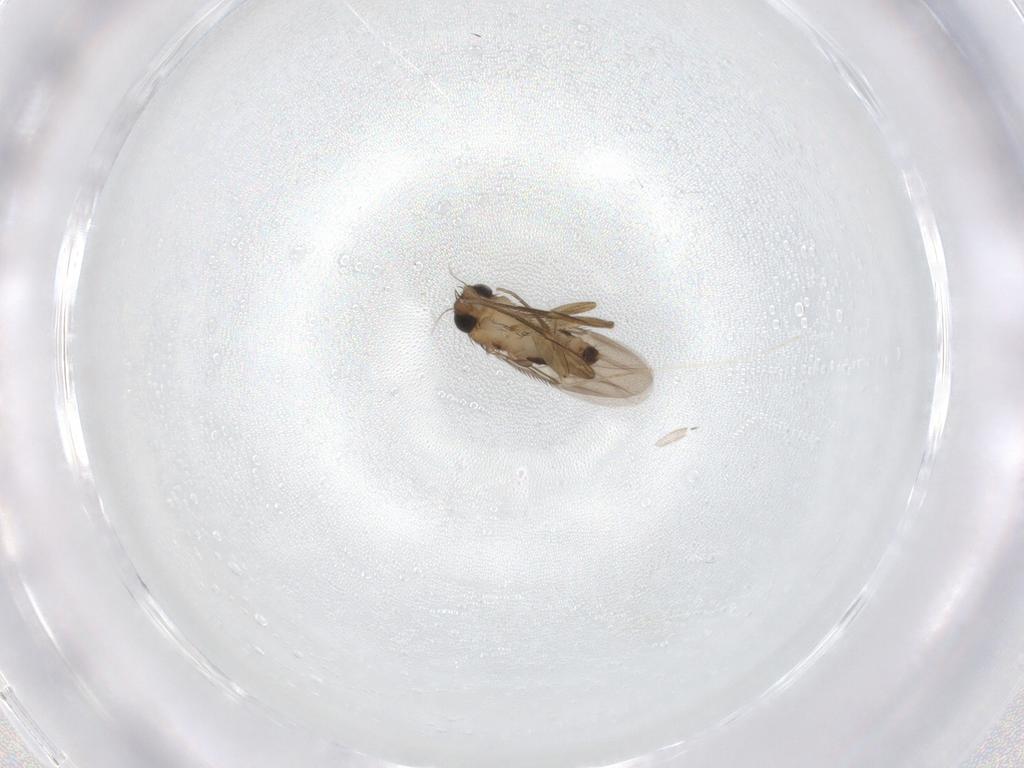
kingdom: Animalia
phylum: Arthropoda
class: Insecta
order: Diptera
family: Phoridae
